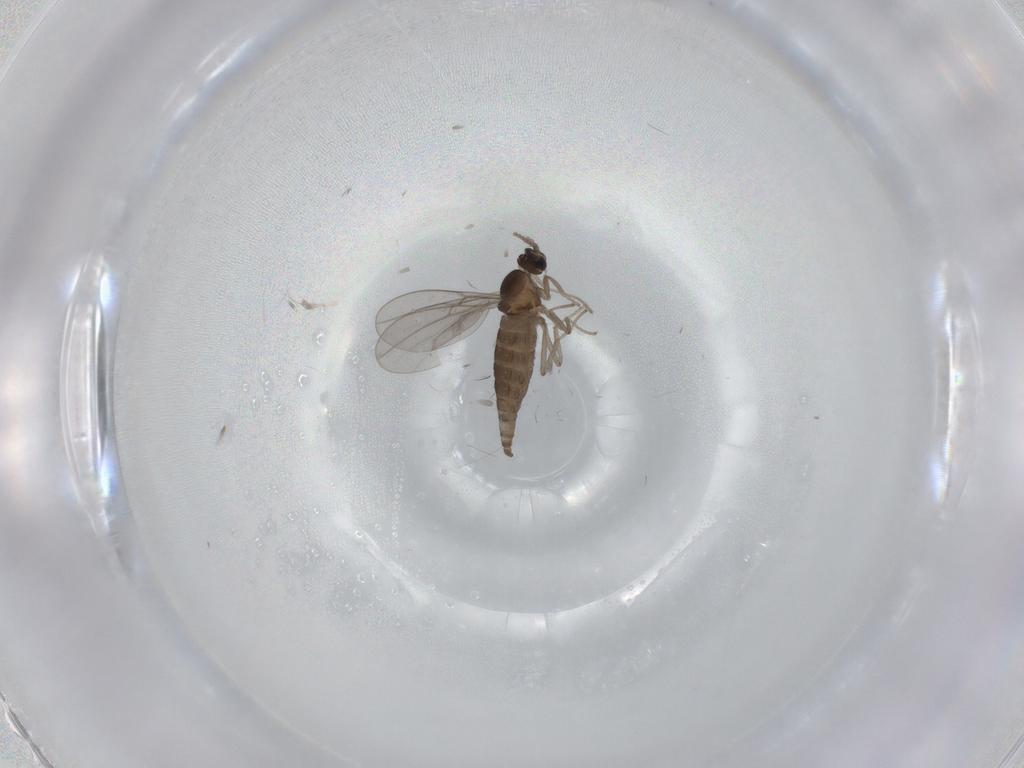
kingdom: Animalia
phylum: Arthropoda
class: Insecta
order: Diptera
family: Cecidomyiidae
